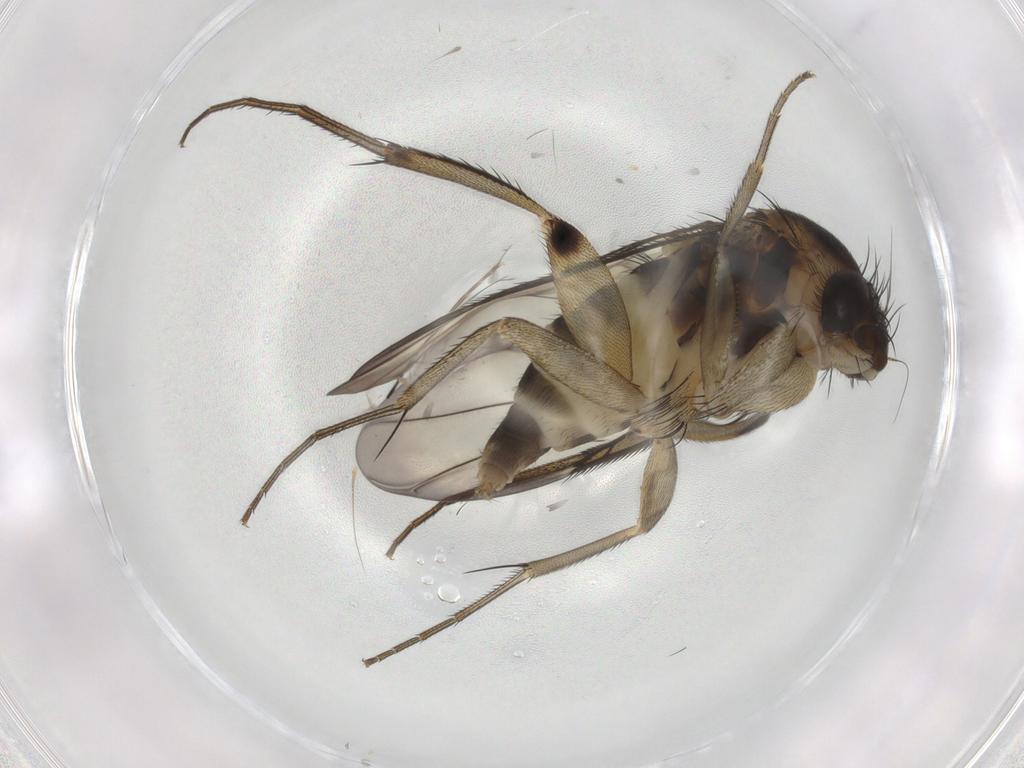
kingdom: Animalia
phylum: Arthropoda
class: Insecta
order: Diptera
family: Phoridae
